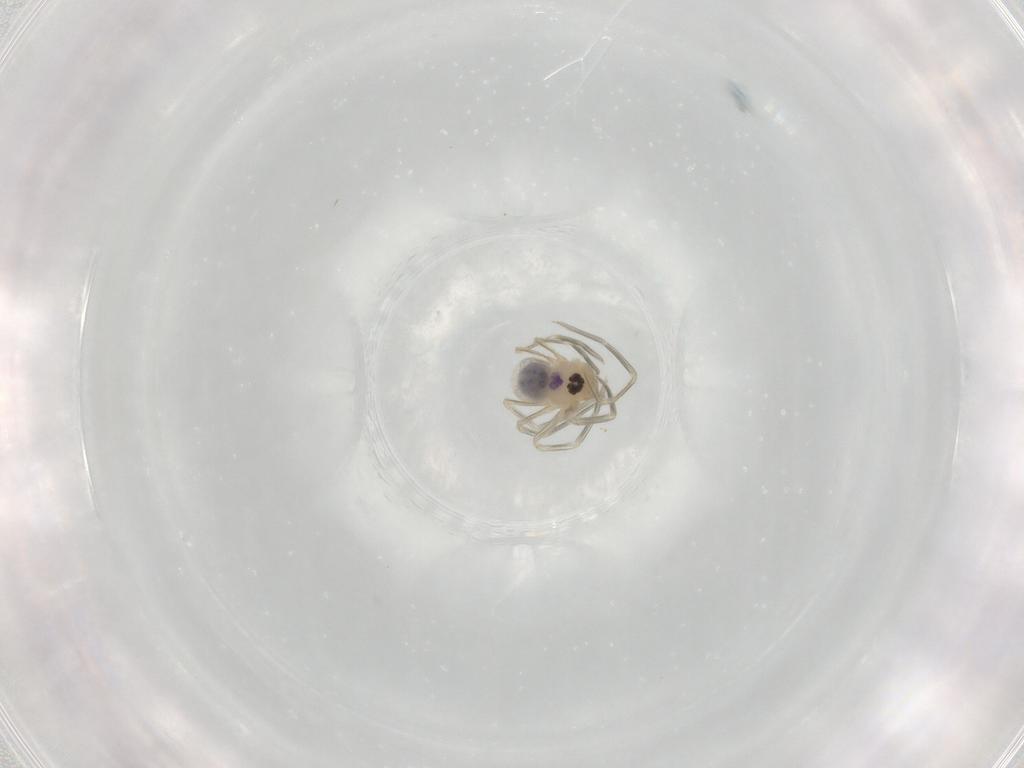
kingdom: Animalia
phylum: Arthropoda
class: Arachnida
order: Araneae
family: Pholcidae
